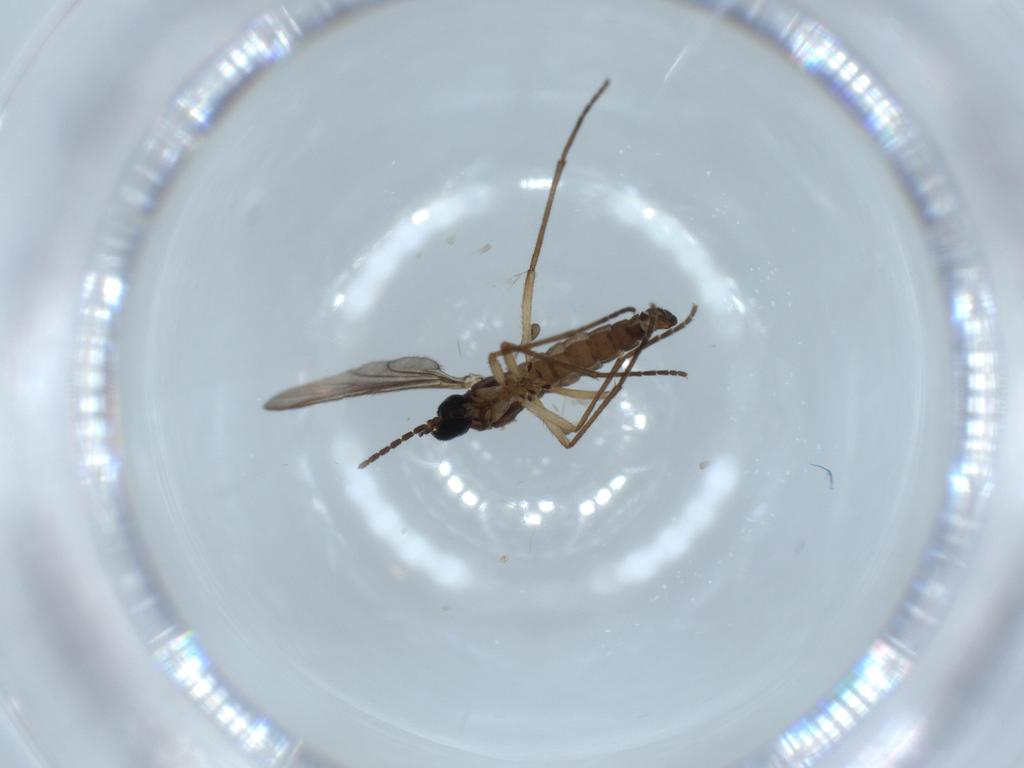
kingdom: Animalia
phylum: Arthropoda
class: Insecta
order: Diptera
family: Sciaridae
